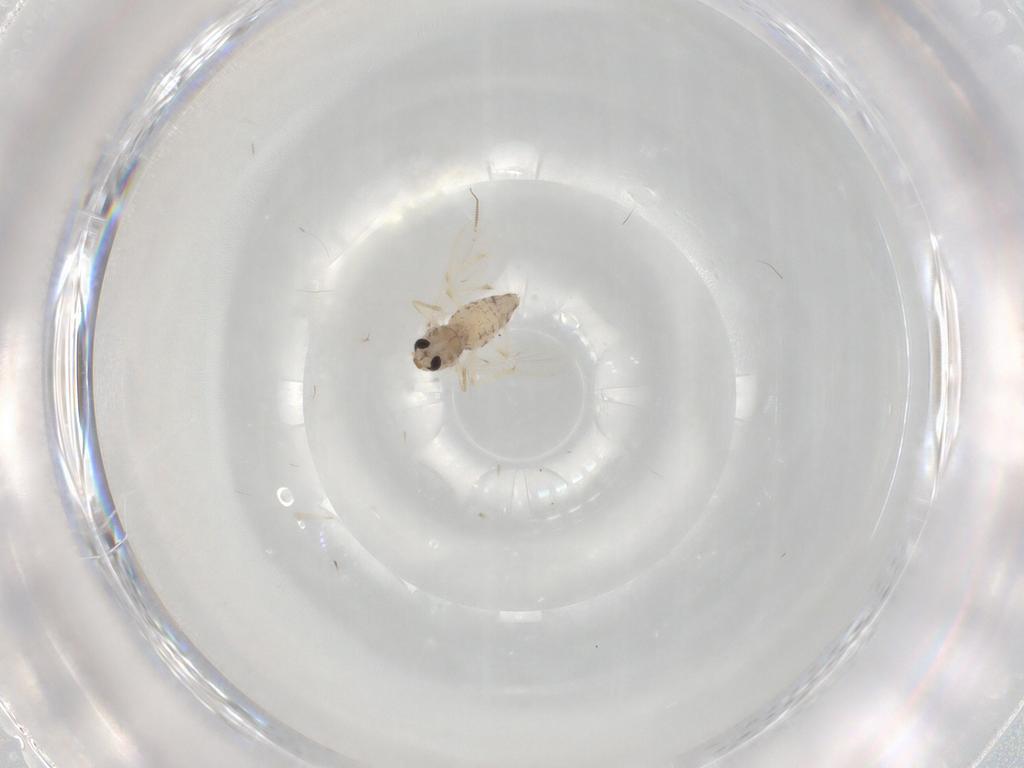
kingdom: Animalia
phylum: Arthropoda
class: Insecta
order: Diptera
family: Chironomidae
